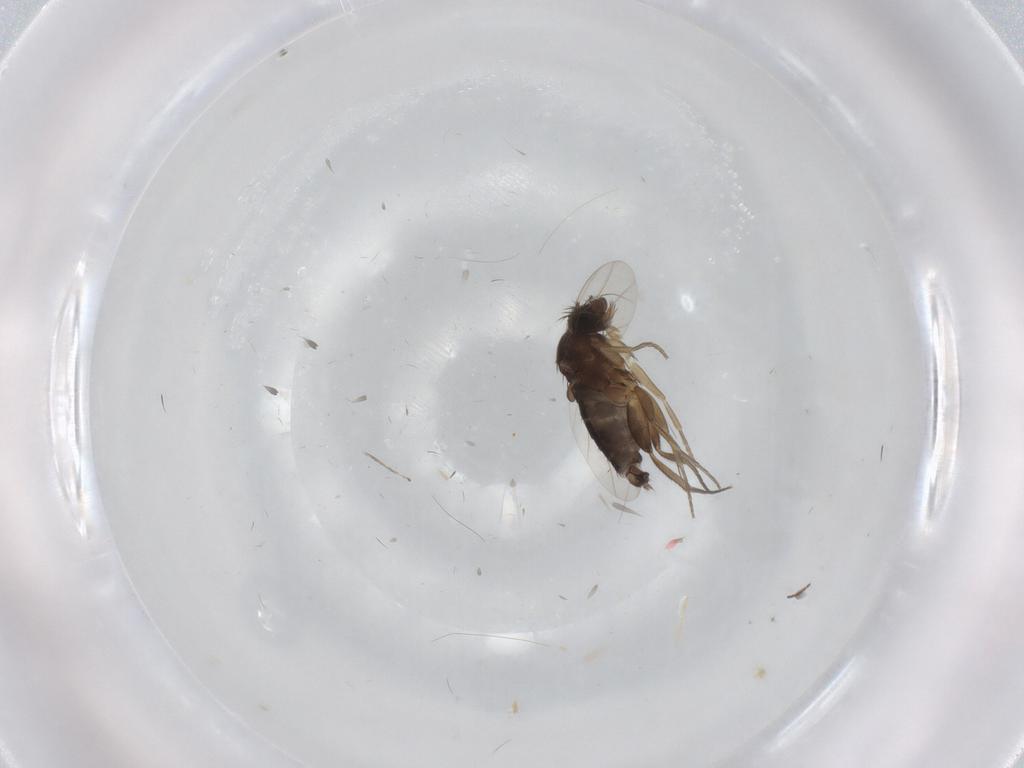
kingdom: Animalia
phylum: Arthropoda
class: Insecta
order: Diptera
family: Phoridae
